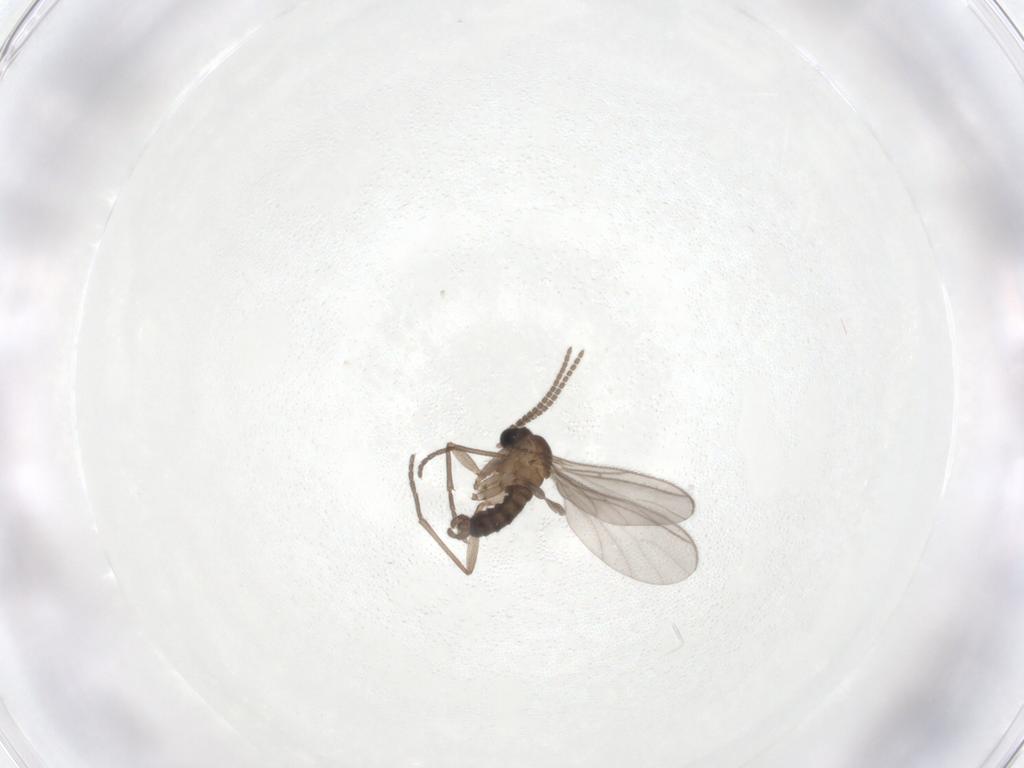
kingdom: Animalia
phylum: Arthropoda
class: Insecta
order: Diptera
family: Sciaridae
